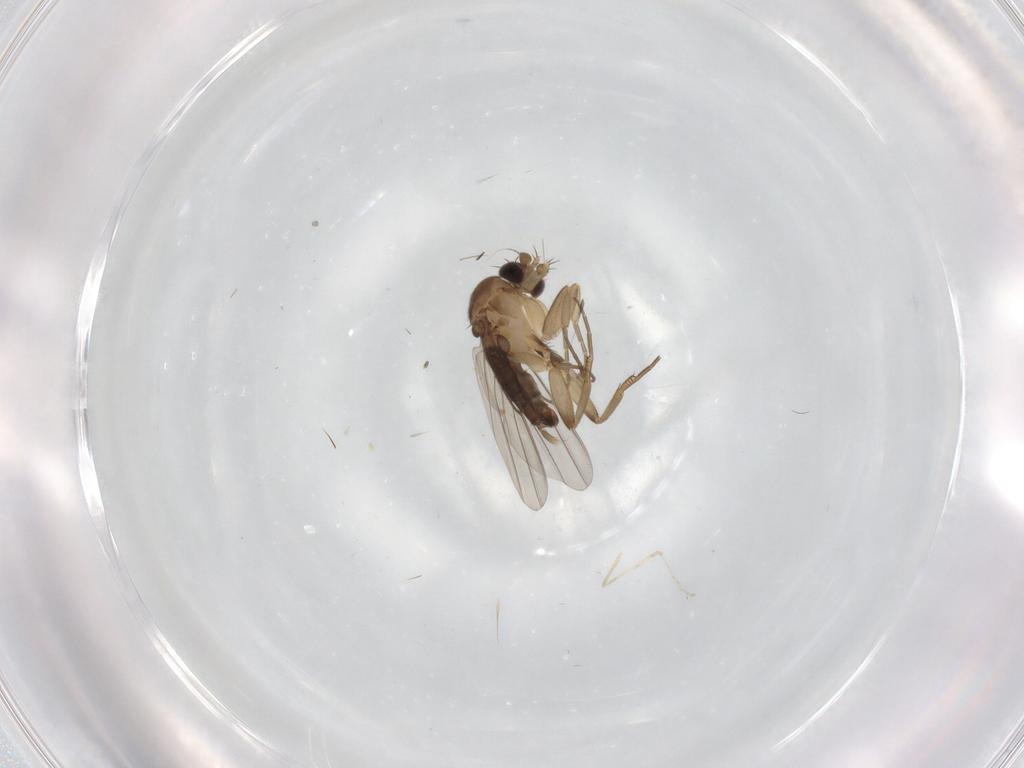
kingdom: Animalia
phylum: Arthropoda
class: Insecta
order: Diptera
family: Phoridae
